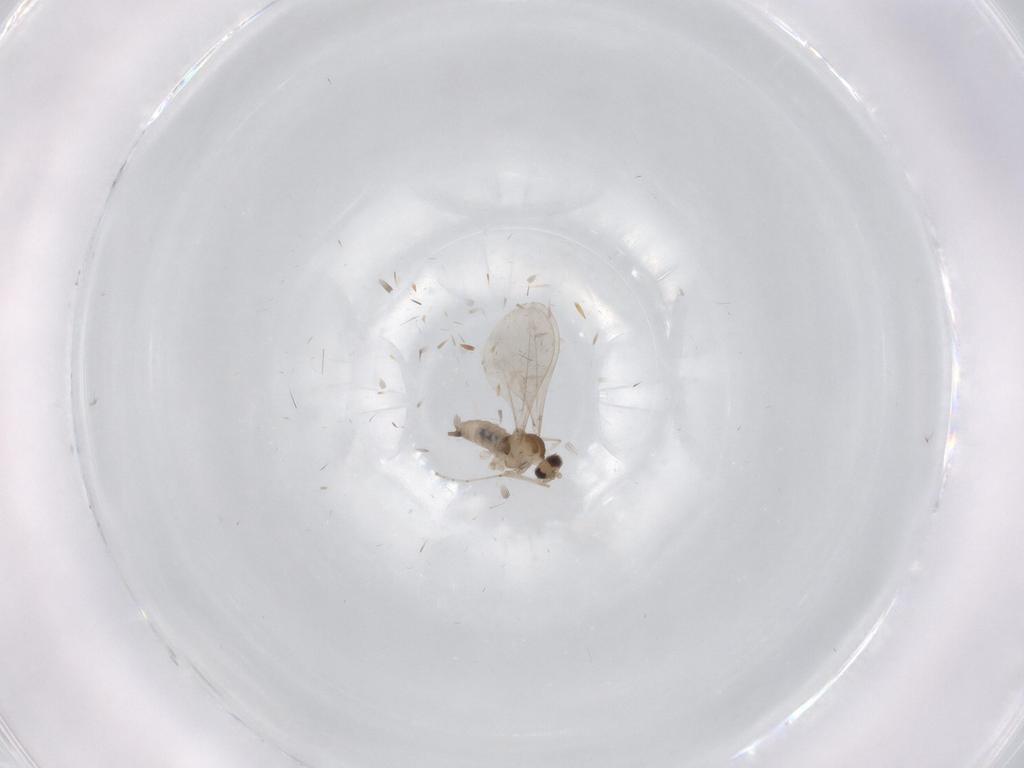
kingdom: Animalia
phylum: Arthropoda
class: Insecta
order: Diptera
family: Cecidomyiidae
